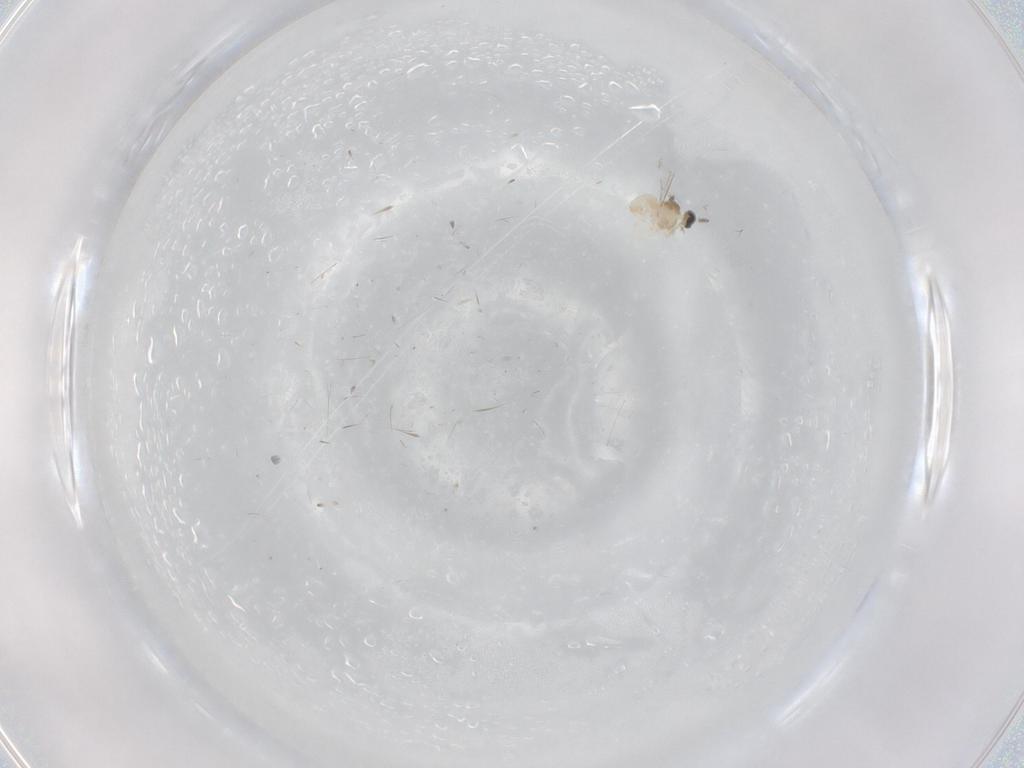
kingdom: Animalia
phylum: Arthropoda
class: Insecta
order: Diptera
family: Cecidomyiidae
